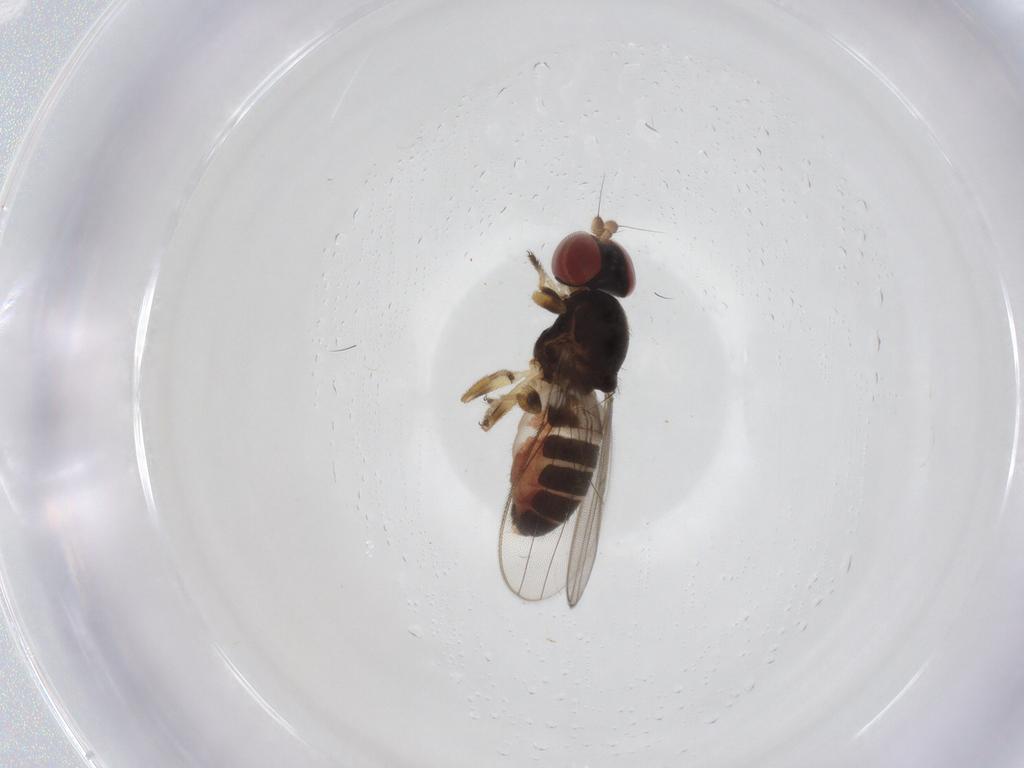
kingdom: Animalia
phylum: Arthropoda
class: Insecta
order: Diptera
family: Aulacigastridae
